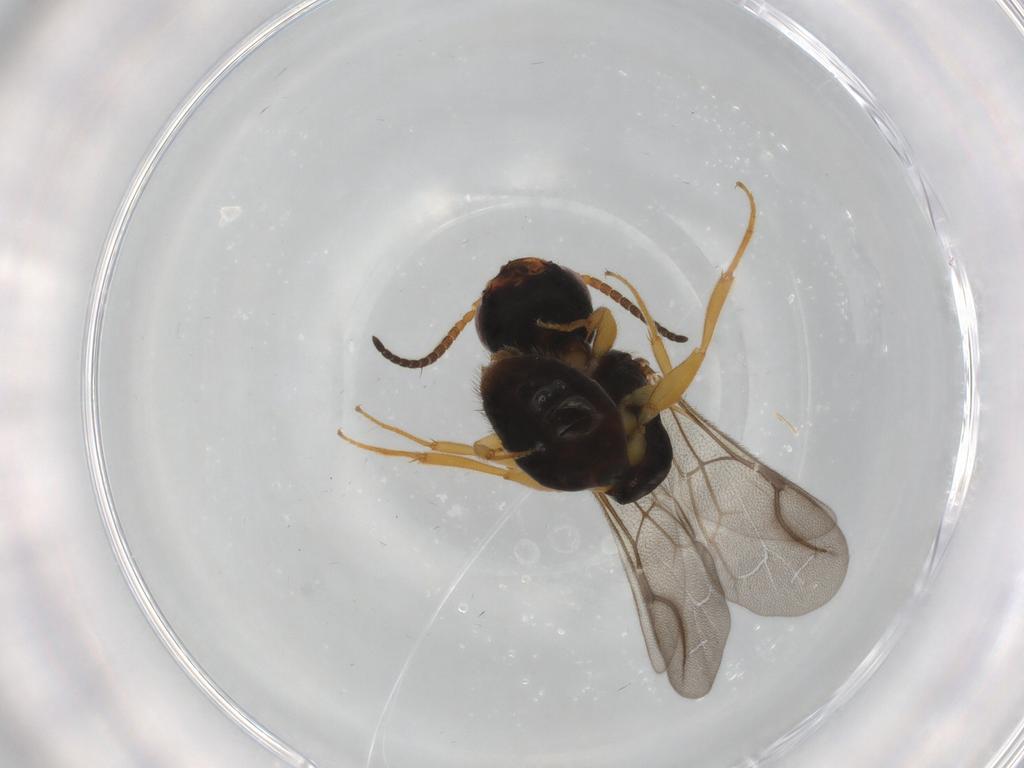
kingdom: Animalia
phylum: Arthropoda
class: Insecta
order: Hymenoptera
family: Bethylidae
